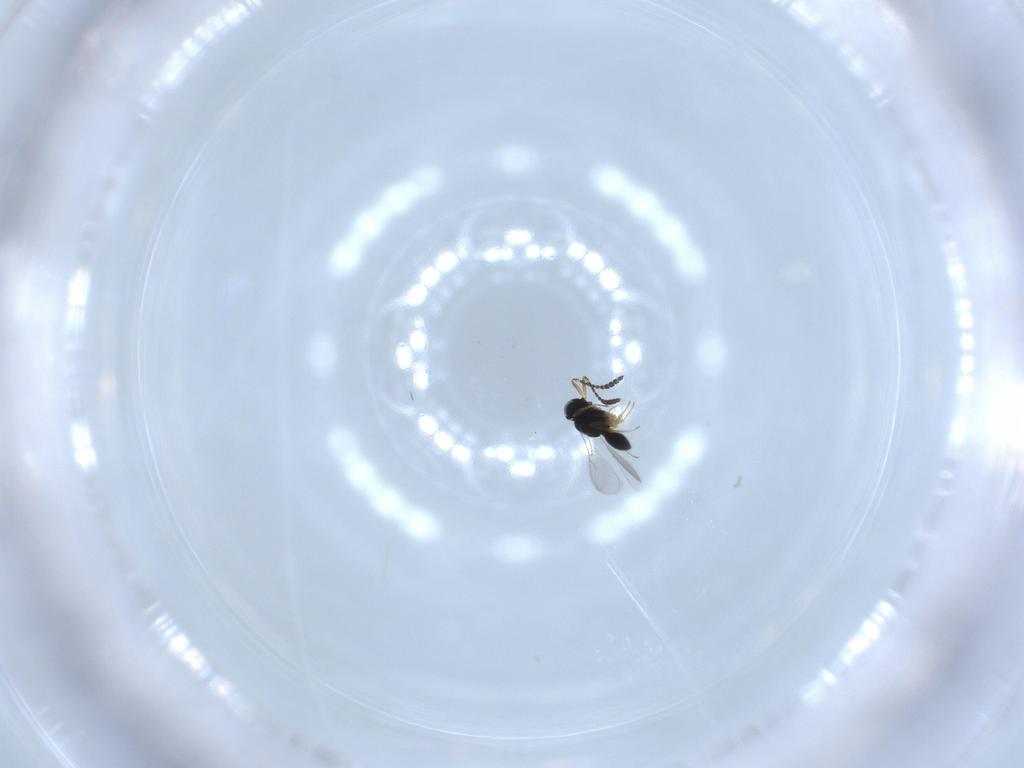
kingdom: Animalia
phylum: Arthropoda
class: Insecta
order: Hymenoptera
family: Scelionidae
